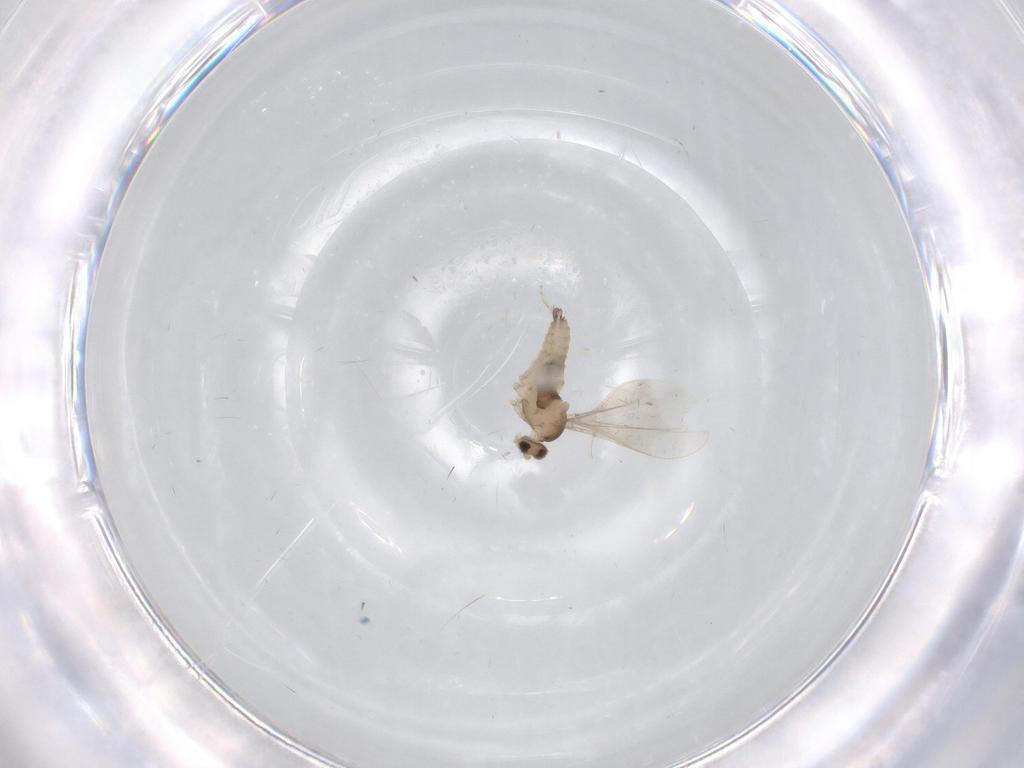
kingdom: Animalia
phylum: Arthropoda
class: Insecta
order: Diptera
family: Cecidomyiidae
